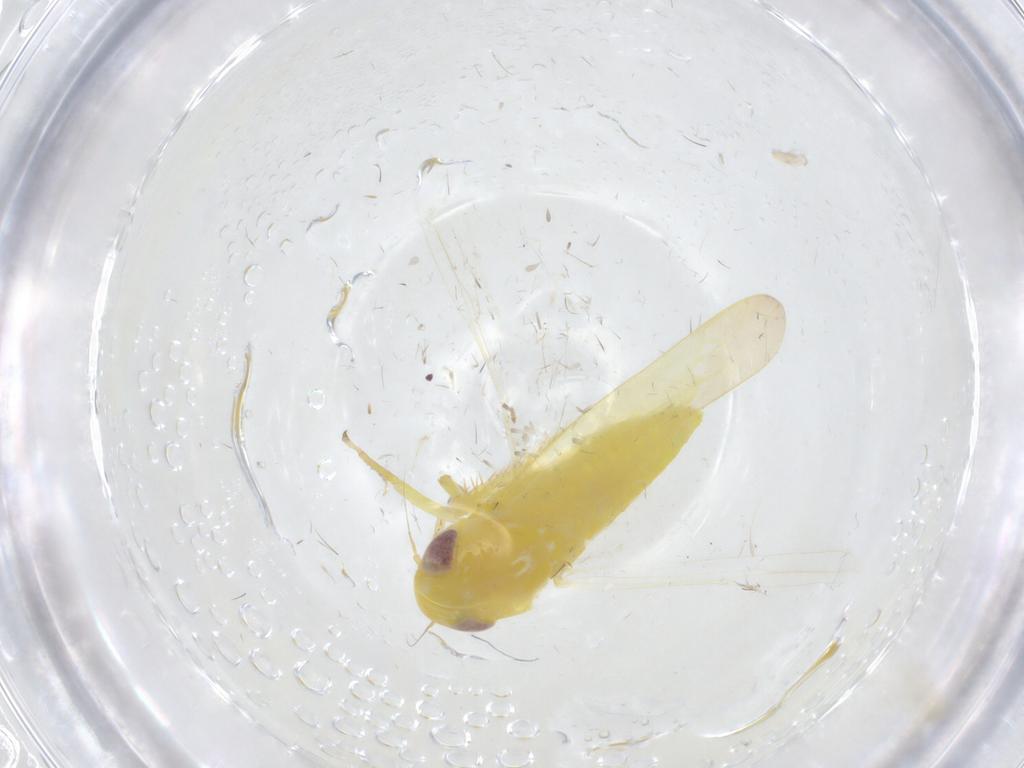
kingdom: Animalia
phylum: Arthropoda
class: Insecta
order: Hemiptera
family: Cicadellidae
